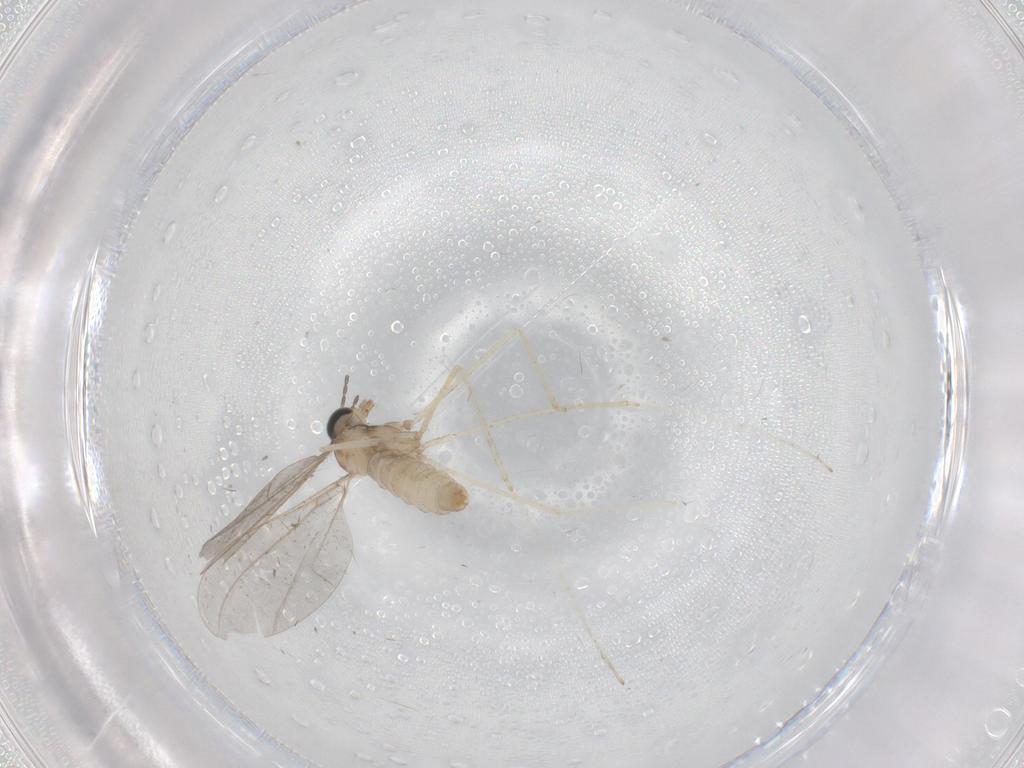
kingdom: Animalia
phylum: Arthropoda
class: Insecta
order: Diptera
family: Cecidomyiidae
